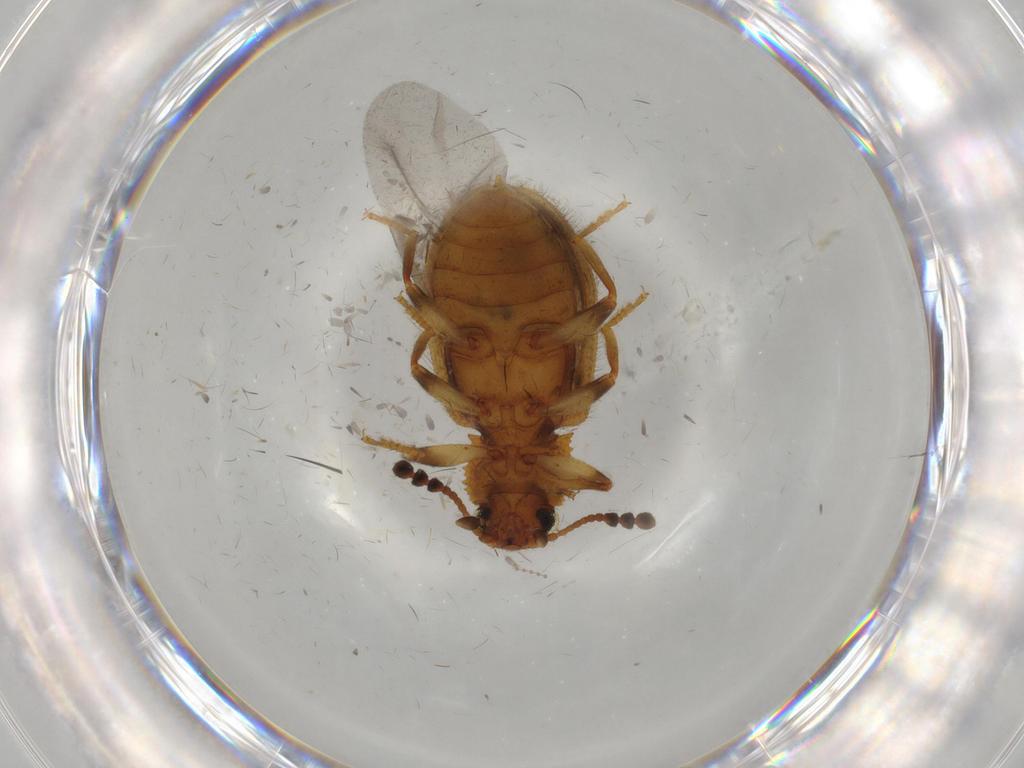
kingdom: Animalia
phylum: Arthropoda
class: Insecta
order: Coleoptera
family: Tenebrionidae
